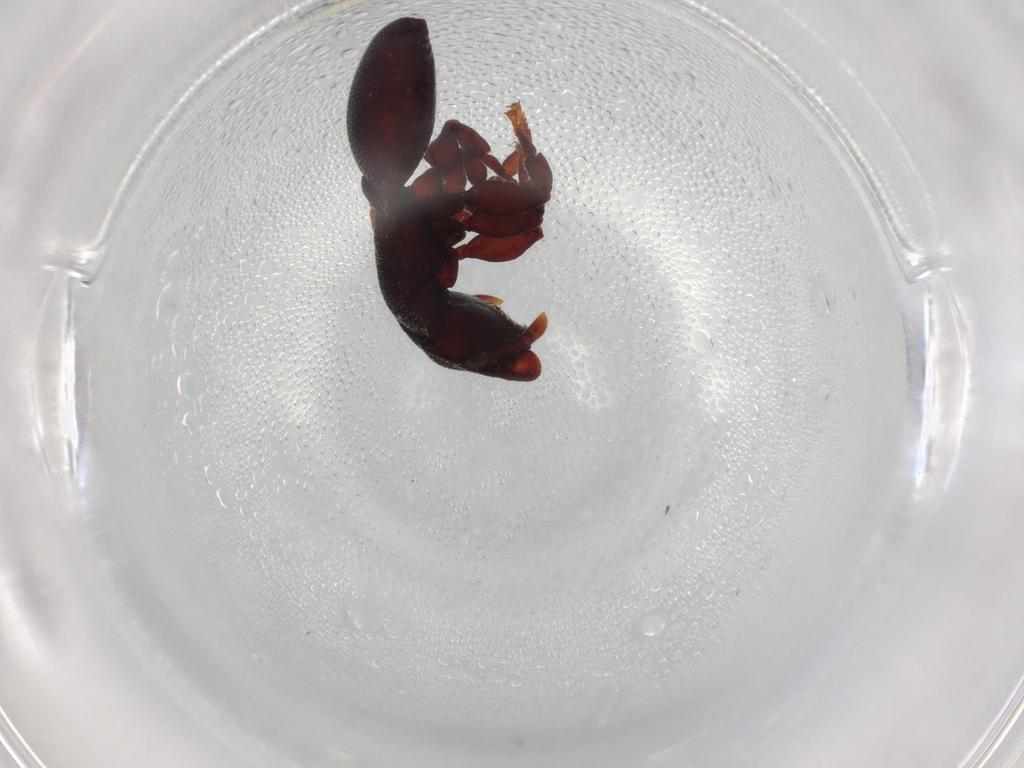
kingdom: Animalia
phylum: Arthropoda
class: Insecta
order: Hymenoptera
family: Formicidae
